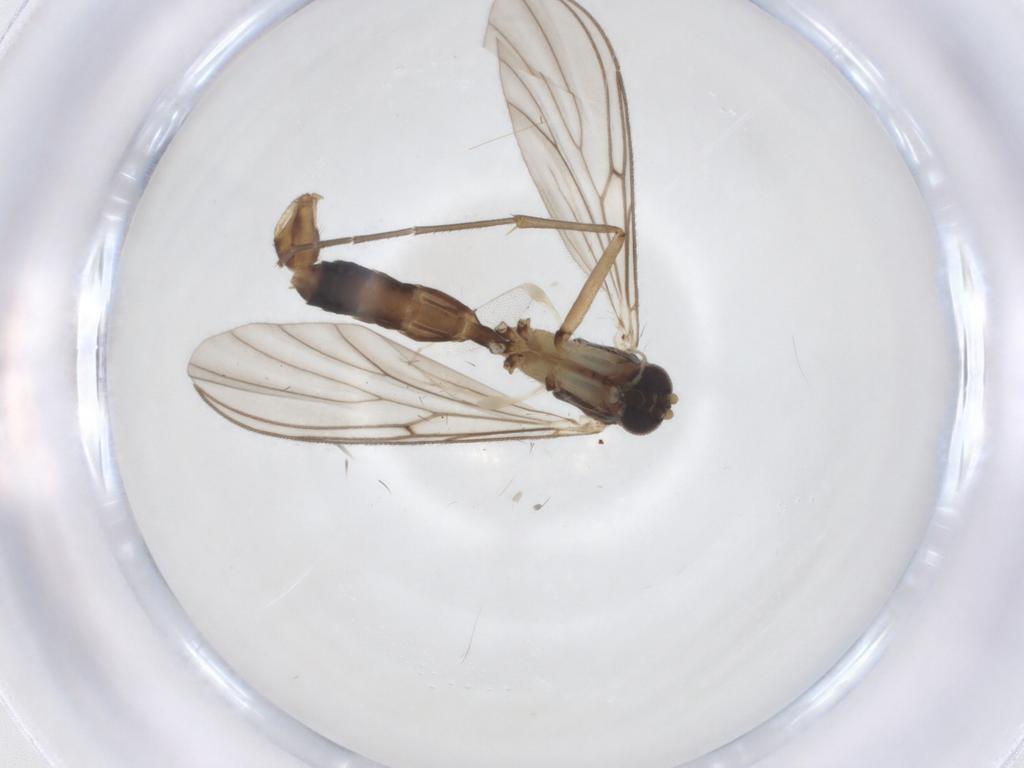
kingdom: Animalia
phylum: Arthropoda
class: Insecta
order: Diptera
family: Mycetophilidae
